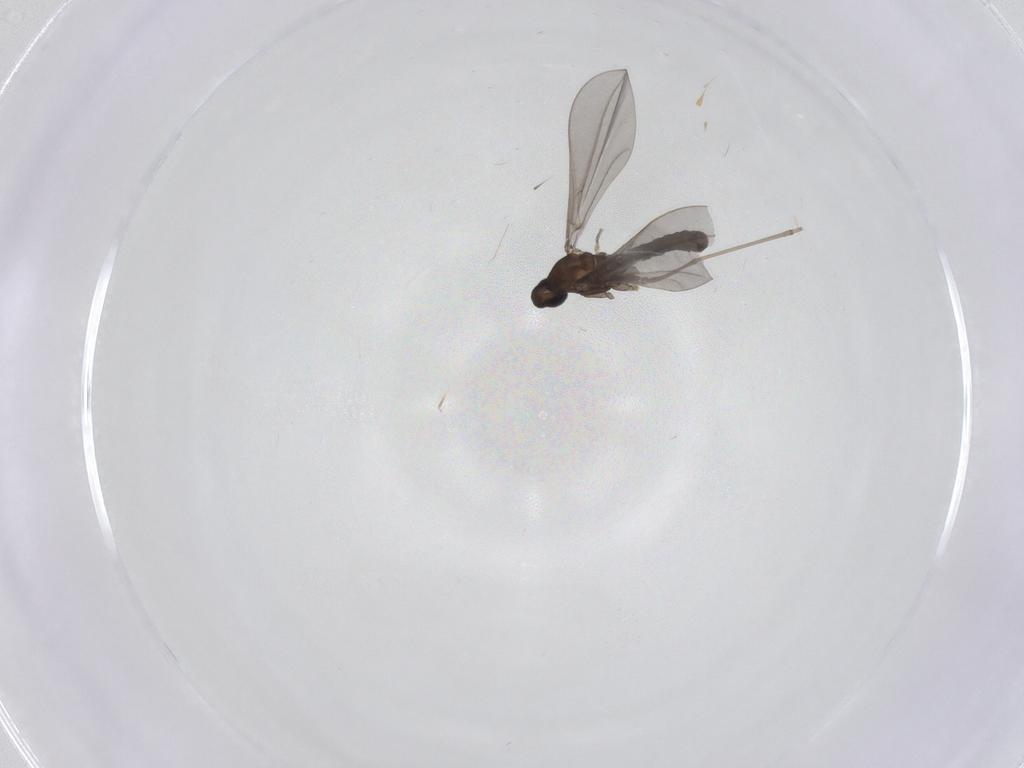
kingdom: Animalia
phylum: Arthropoda
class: Insecta
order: Diptera
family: Cecidomyiidae
